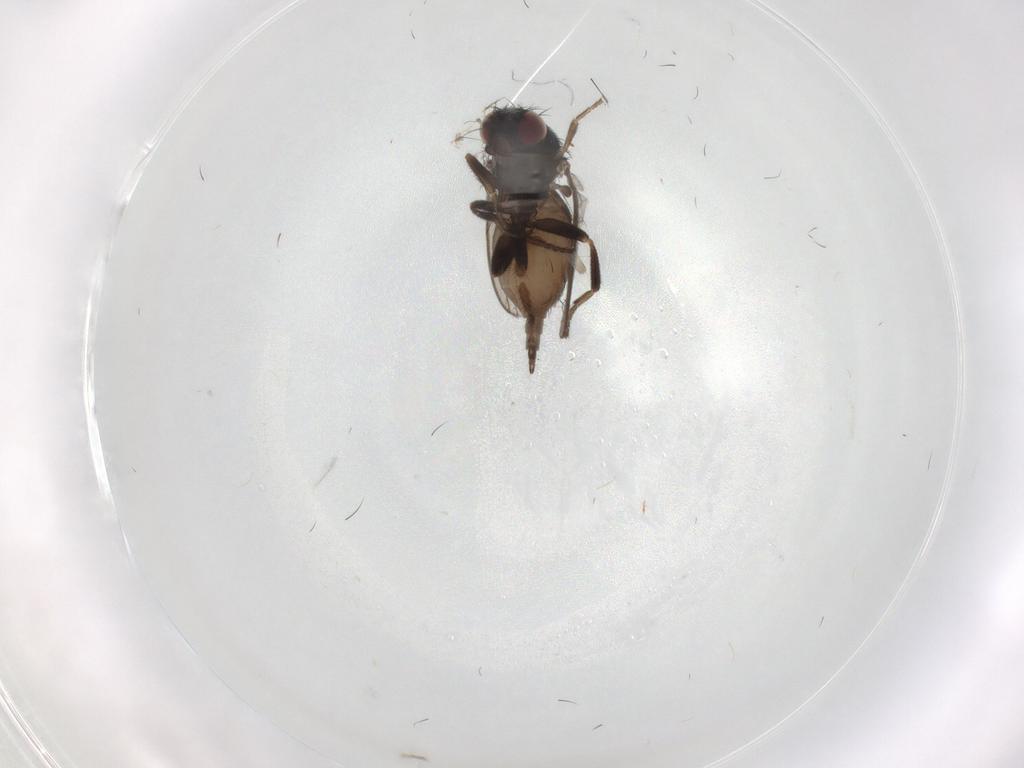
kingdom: Animalia
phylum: Arthropoda
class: Insecta
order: Diptera
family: Milichiidae
